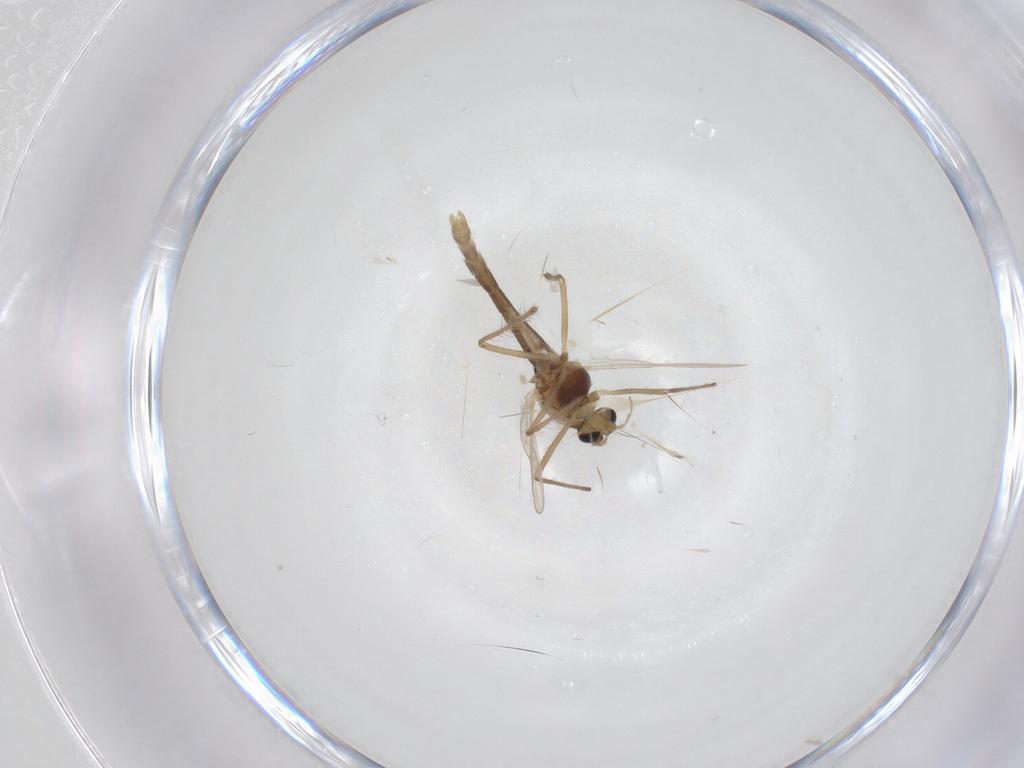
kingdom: Animalia
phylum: Arthropoda
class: Insecta
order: Diptera
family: Chironomidae
